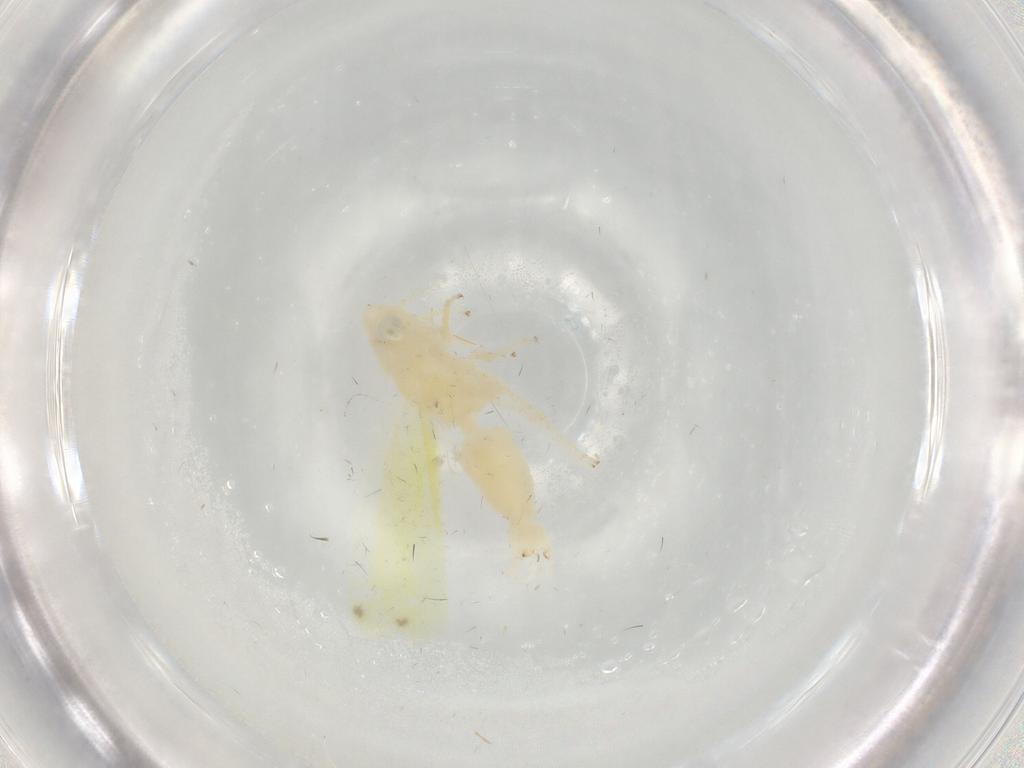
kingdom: Animalia
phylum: Arthropoda
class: Insecta
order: Hemiptera
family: Cicadellidae
